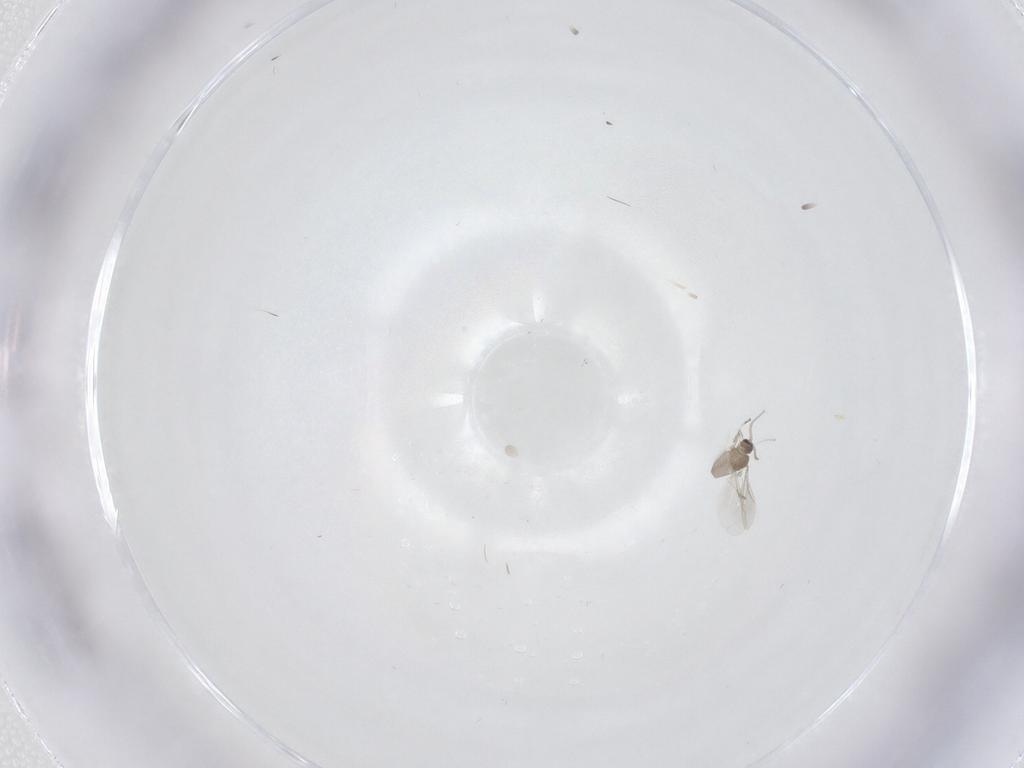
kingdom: Animalia
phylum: Arthropoda
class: Insecta
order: Diptera
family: Cecidomyiidae
